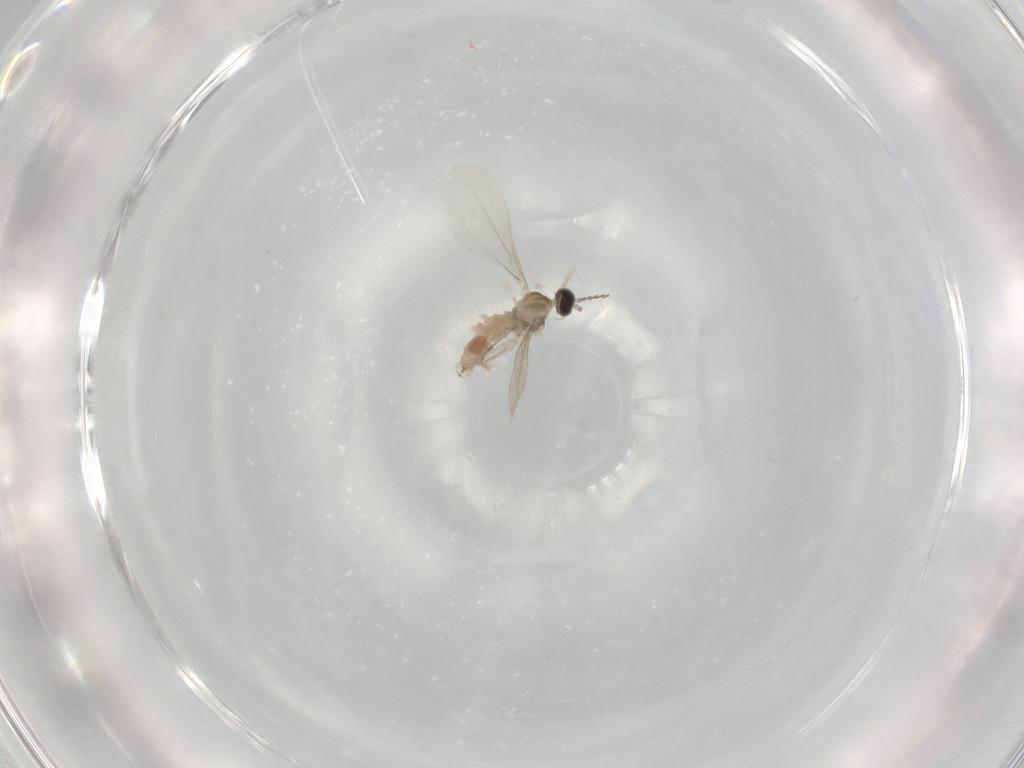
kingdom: Animalia
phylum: Arthropoda
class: Insecta
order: Diptera
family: Cecidomyiidae
